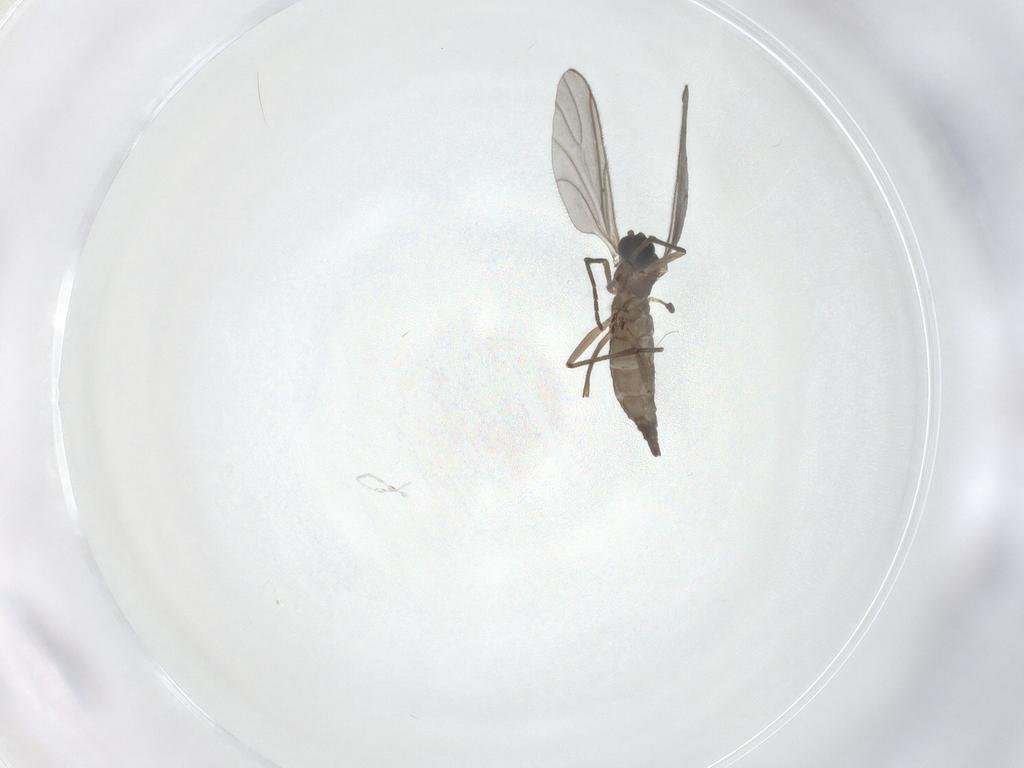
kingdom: Animalia
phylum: Arthropoda
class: Insecta
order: Diptera
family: Sciaridae
